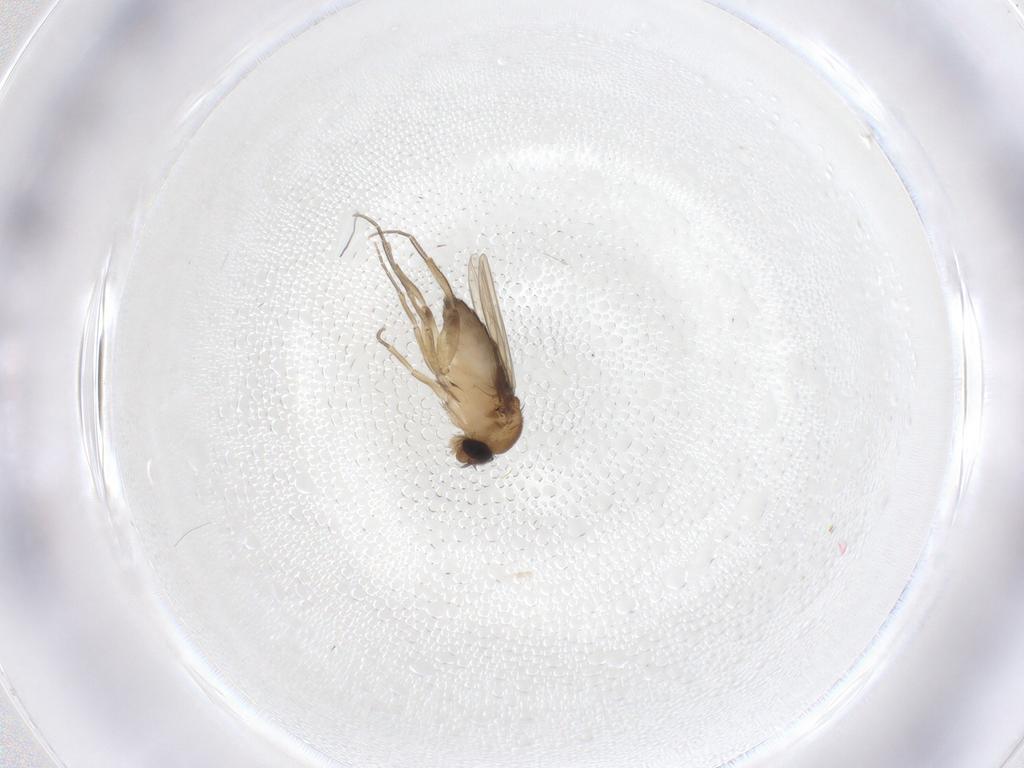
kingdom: Animalia
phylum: Arthropoda
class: Insecta
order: Diptera
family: Phoridae
